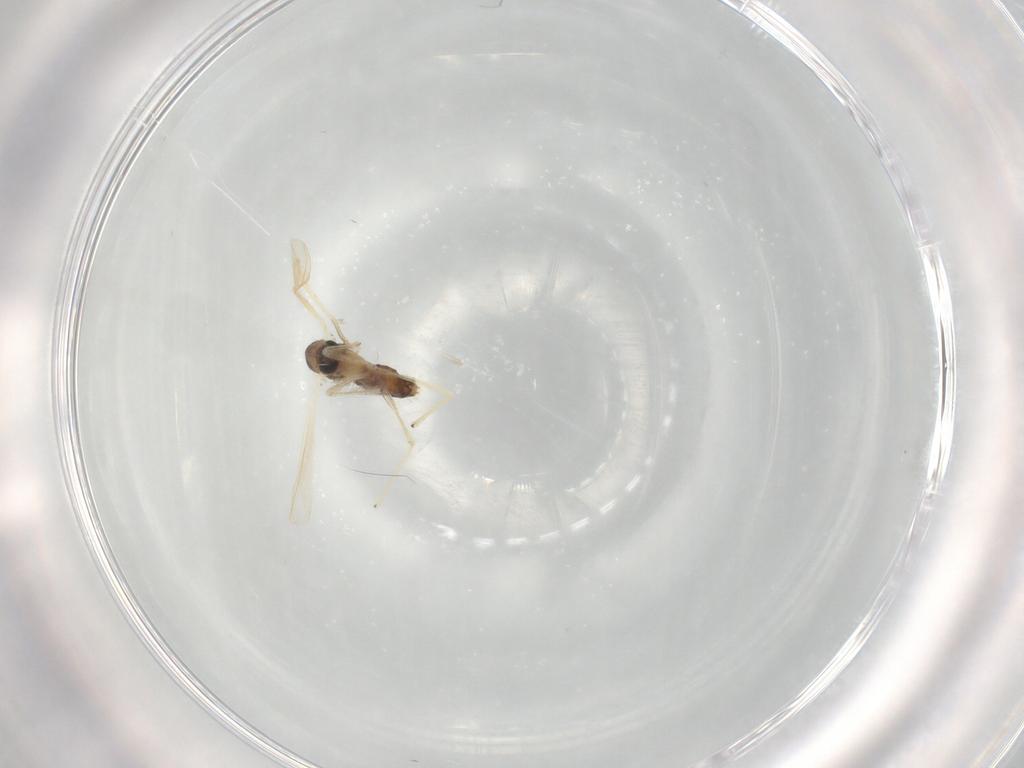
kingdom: Animalia
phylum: Arthropoda
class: Insecta
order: Diptera
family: Chironomidae
